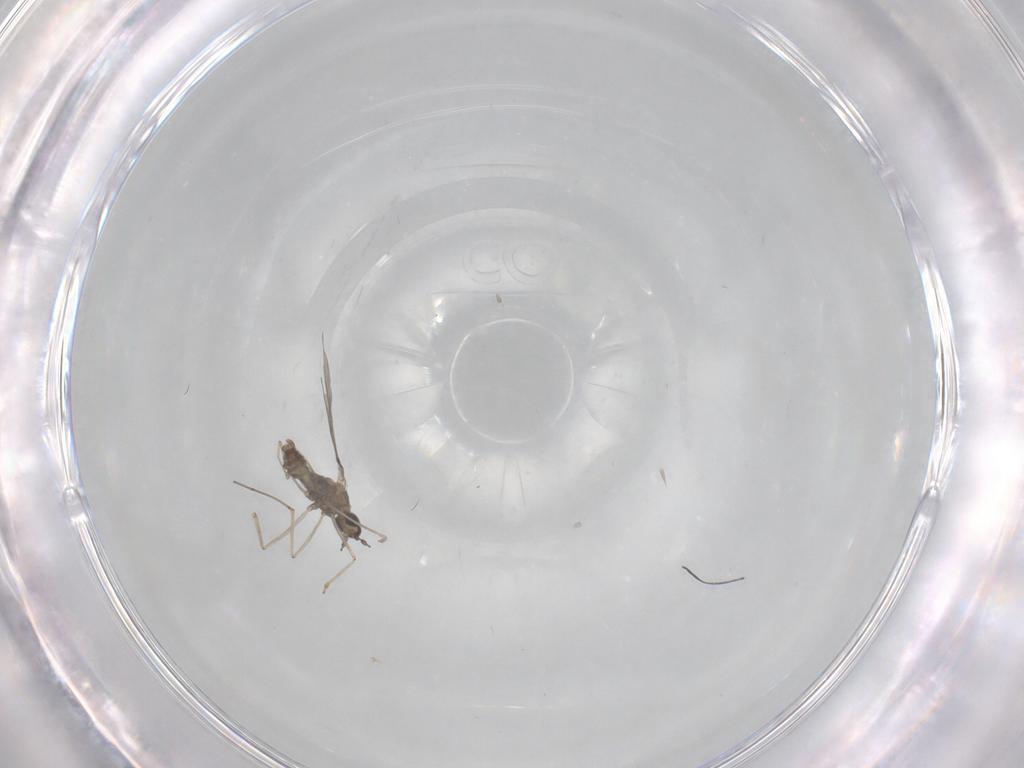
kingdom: Animalia
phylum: Arthropoda
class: Insecta
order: Diptera
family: Cecidomyiidae
